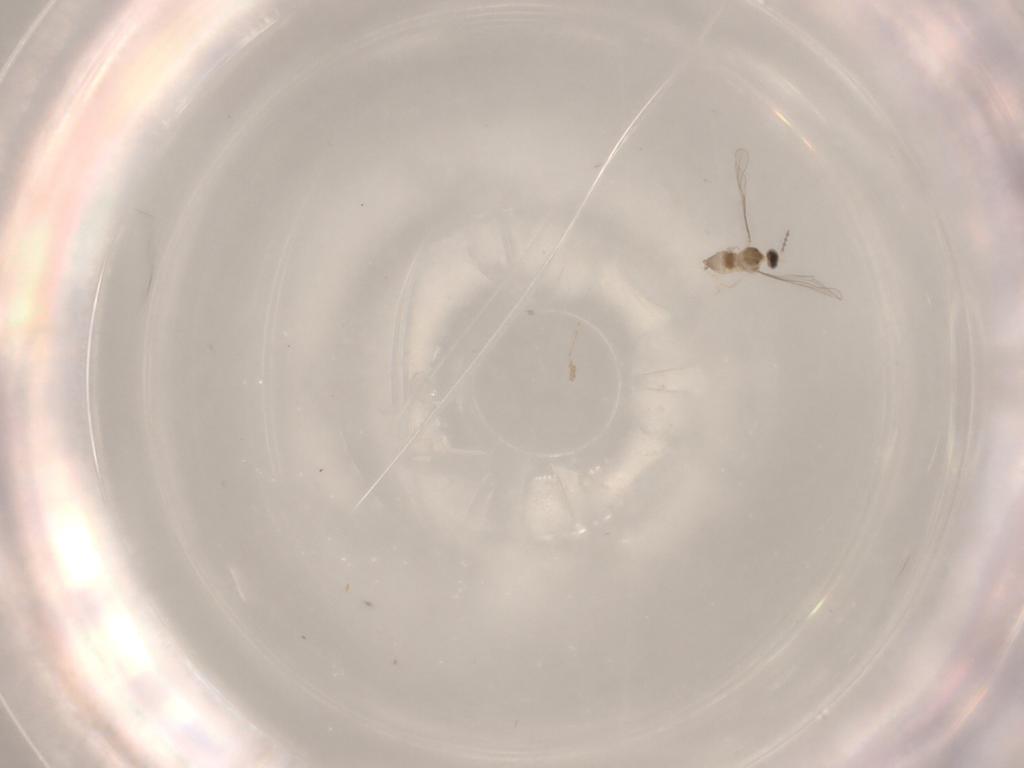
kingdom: Animalia
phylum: Arthropoda
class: Insecta
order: Diptera
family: Cecidomyiidae
